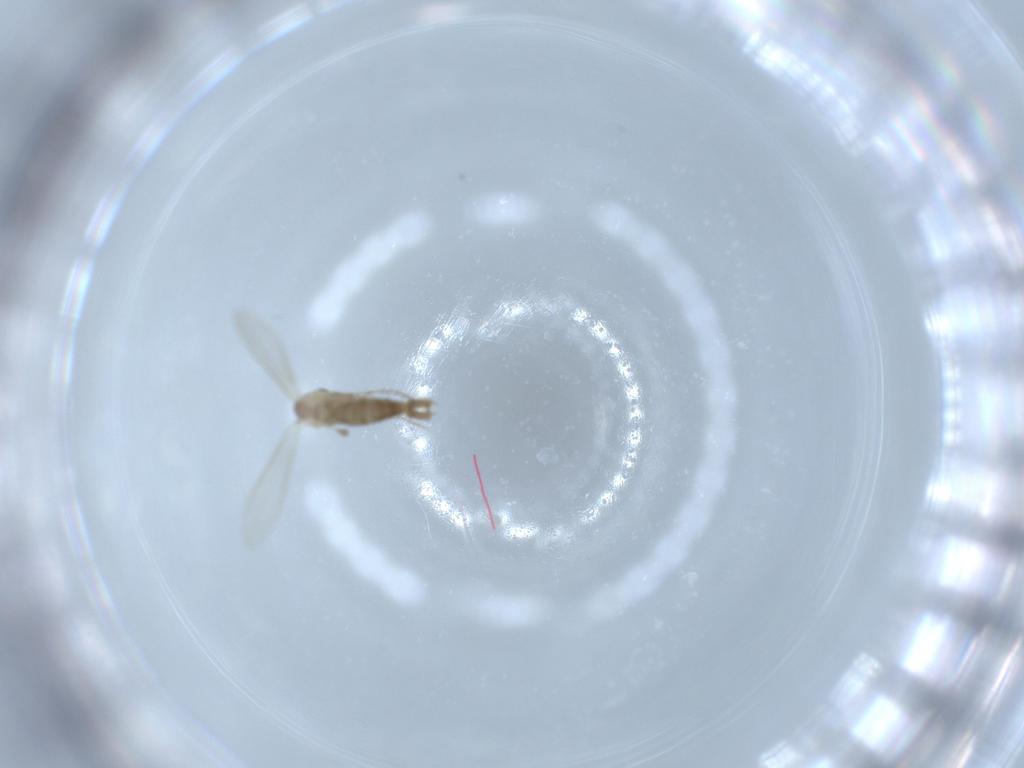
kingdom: Animalia
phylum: Arthropoda
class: Insecta
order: Diptera
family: Psychodidae
